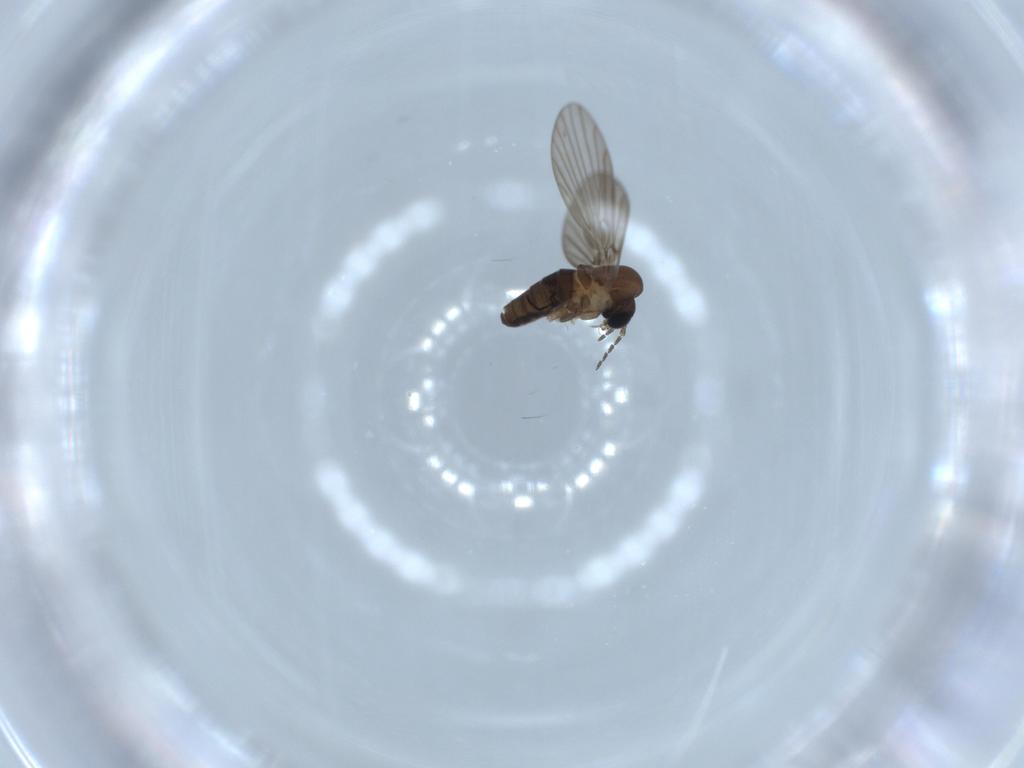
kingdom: Animalia
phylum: Arthropoda
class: Insecta
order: Diptera
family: Psychodidae
